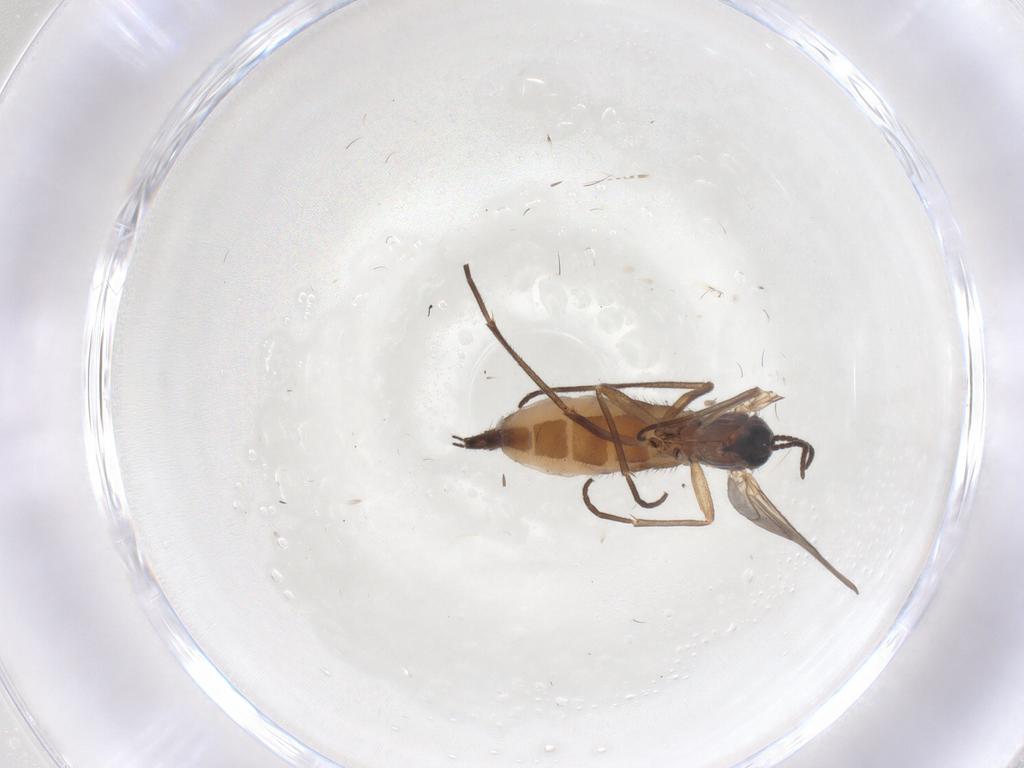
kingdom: Animalia
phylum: Arthropoda
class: Insecta
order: Diptera
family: Sciaridae
